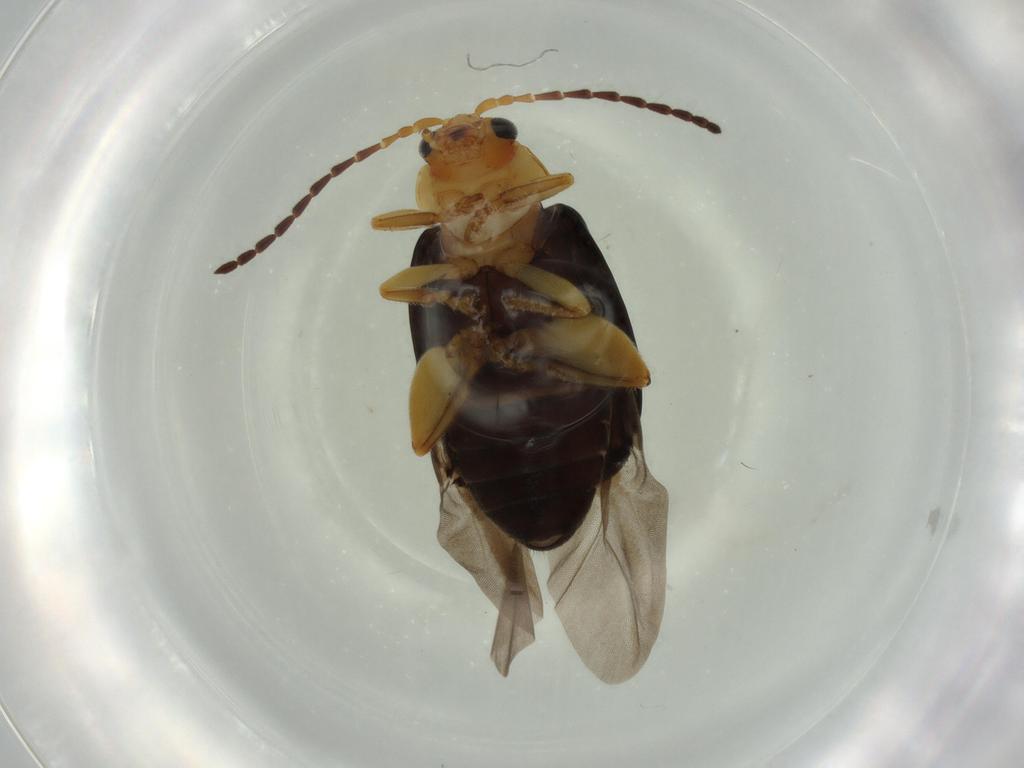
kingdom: Animalia
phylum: Arthropoda
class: Insecta
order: Coleoptera
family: Chrysomelidae
